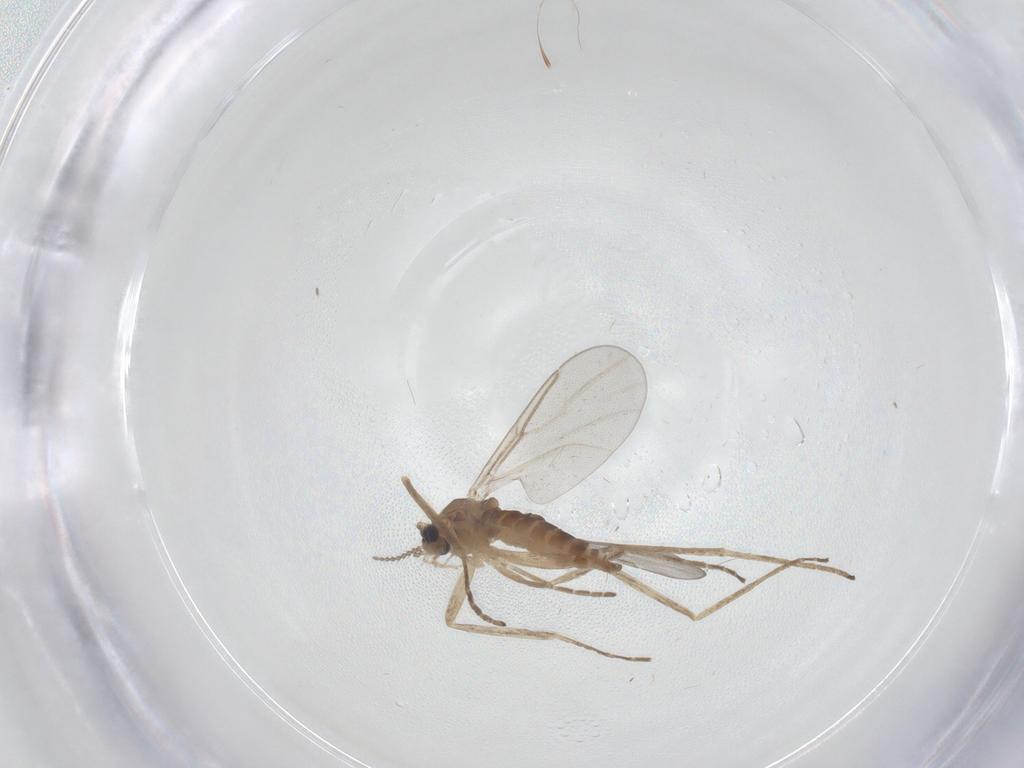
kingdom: Animalia
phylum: Arthropoda
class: Insecta
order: Diptera
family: Cecidomyiidae
